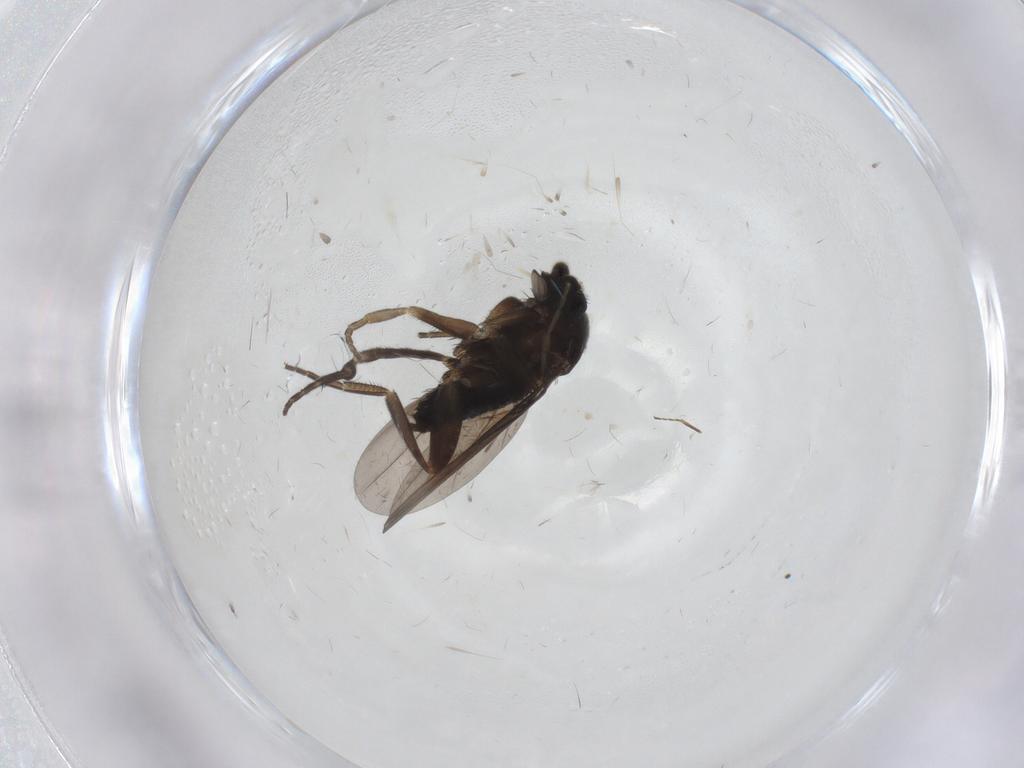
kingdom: Animalia
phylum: Arthropoda
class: Insecta
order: Diptera
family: Phoridae
